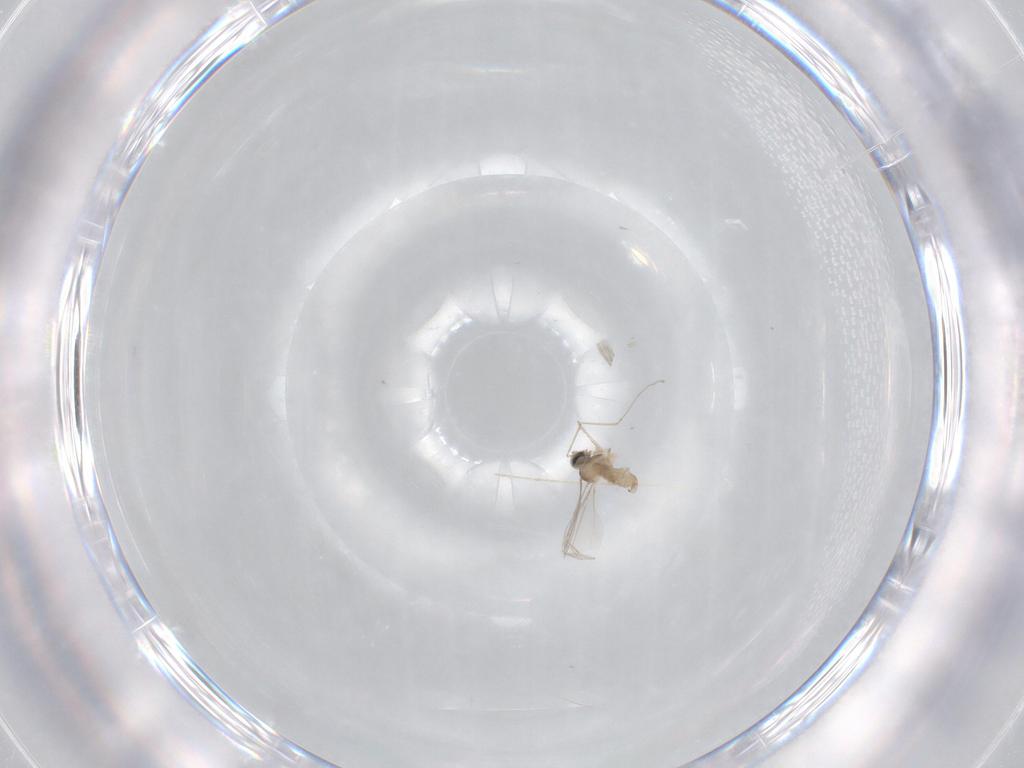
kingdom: Animalia
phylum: Arthropoda
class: Insecta
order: Diptera
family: Cecidomyiidae
